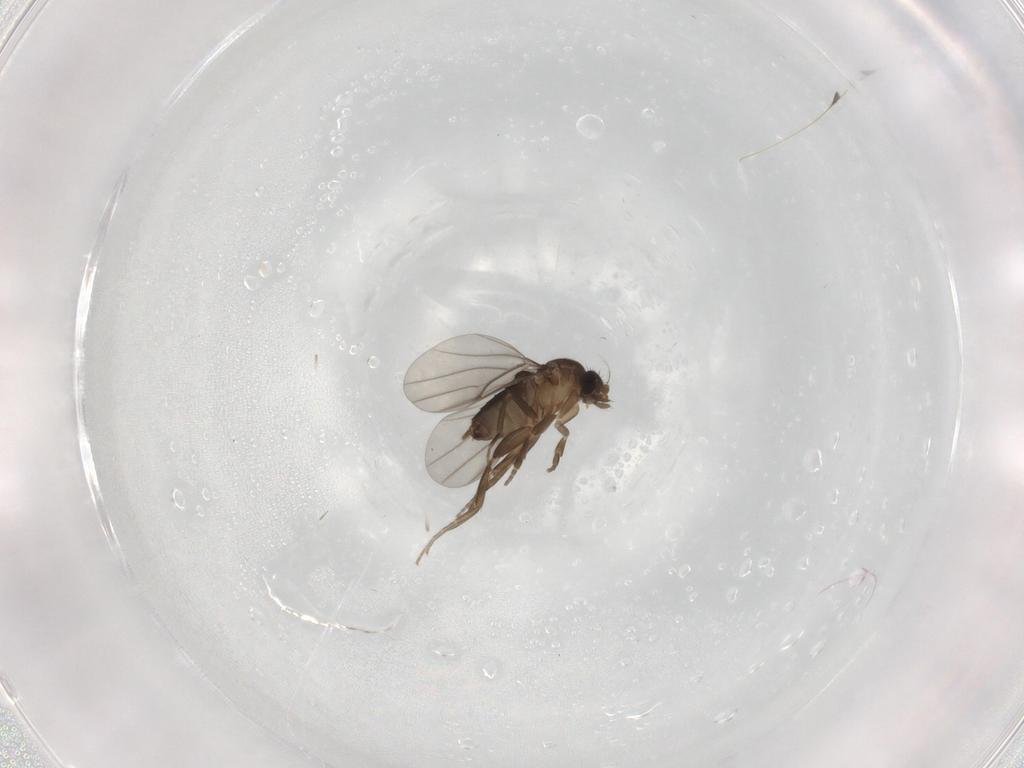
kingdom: Animalia
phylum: Arthropoda
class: Insecta
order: Diptera
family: Phoridae
